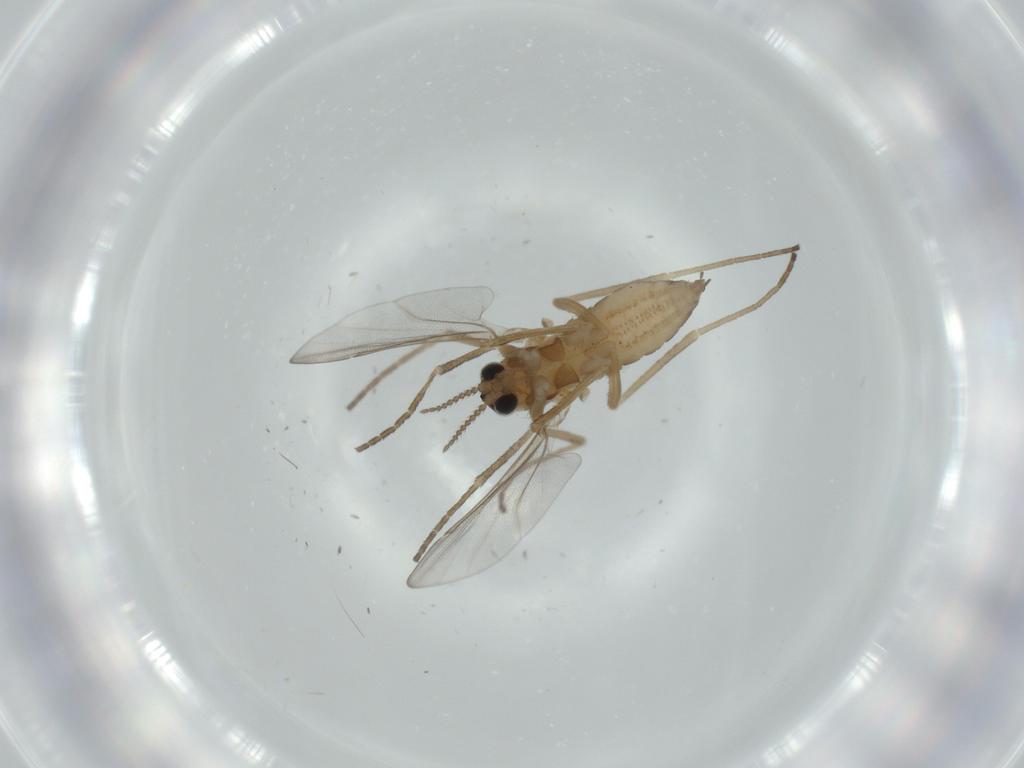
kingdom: Animalia
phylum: Arthropoda
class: Insecta
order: Diptera
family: Cecidomyiidae
